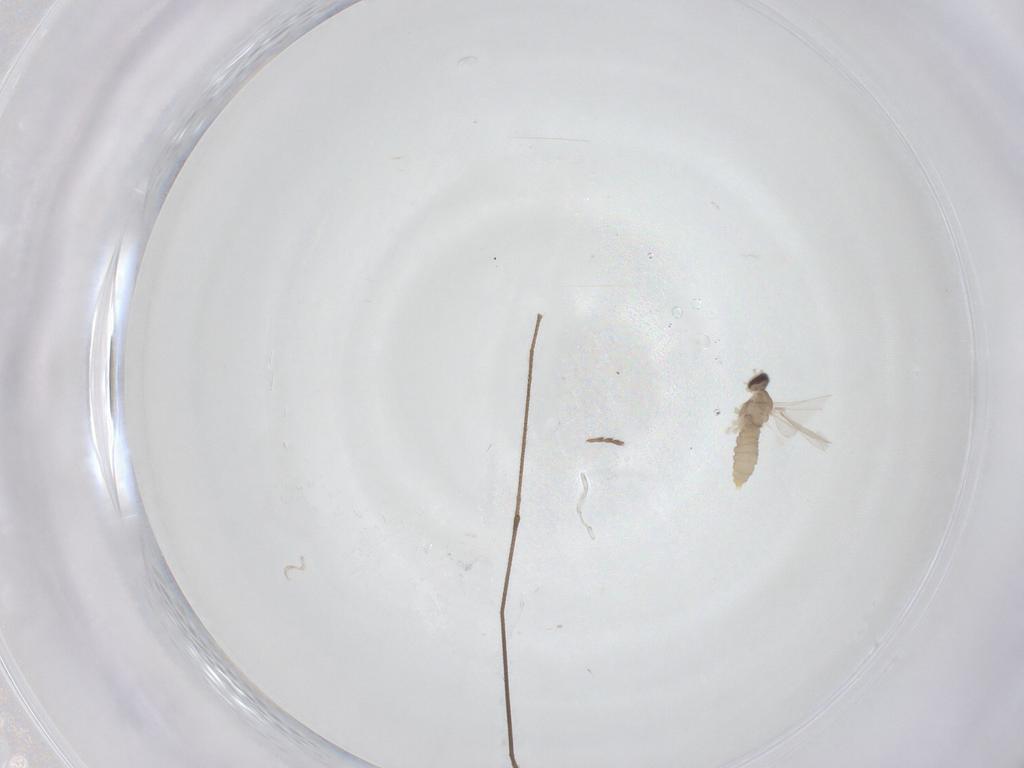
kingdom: Animalia
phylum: Arthropoda
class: Insecta
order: Diptera
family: Cecidomyiidae
